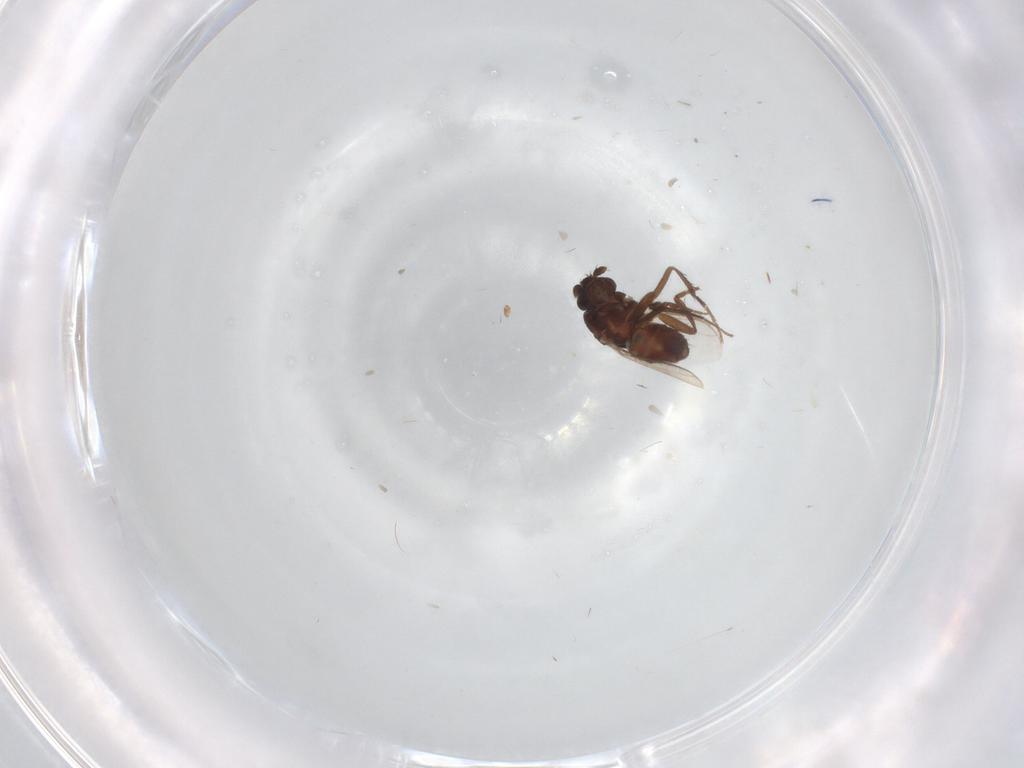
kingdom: Animalia
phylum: Arthropoda
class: Insecta
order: Diptera
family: Sphaeroceridae
